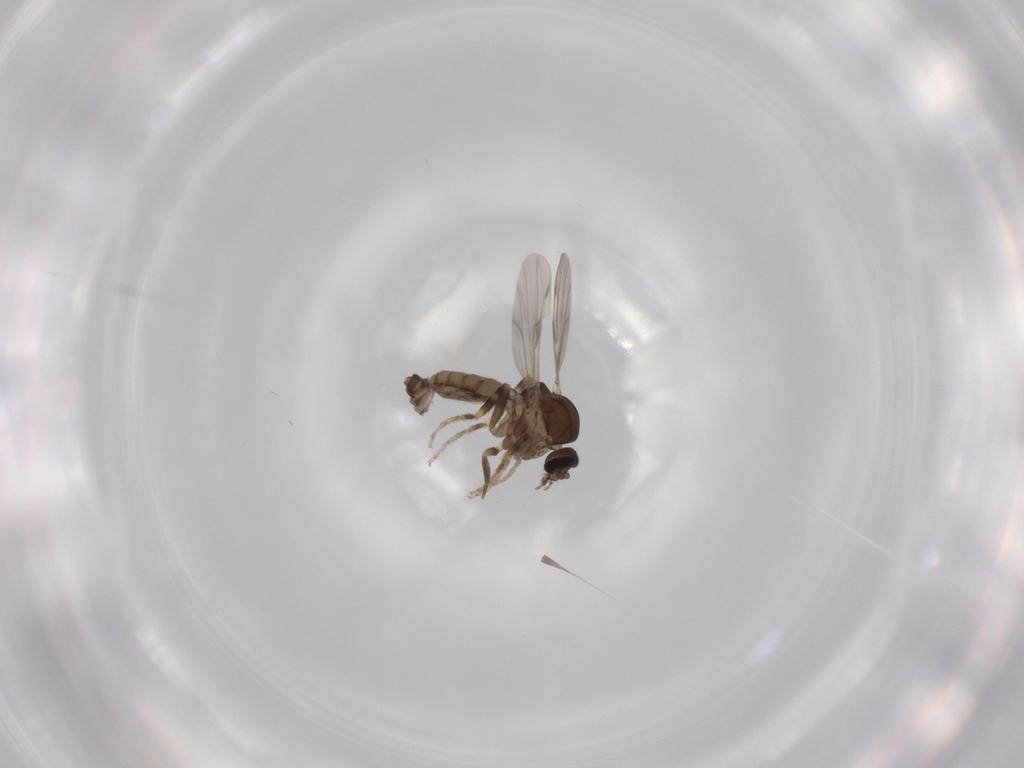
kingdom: Animalia
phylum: Arthropoda
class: Insecta
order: Diptera
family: Ceratopogonidae
